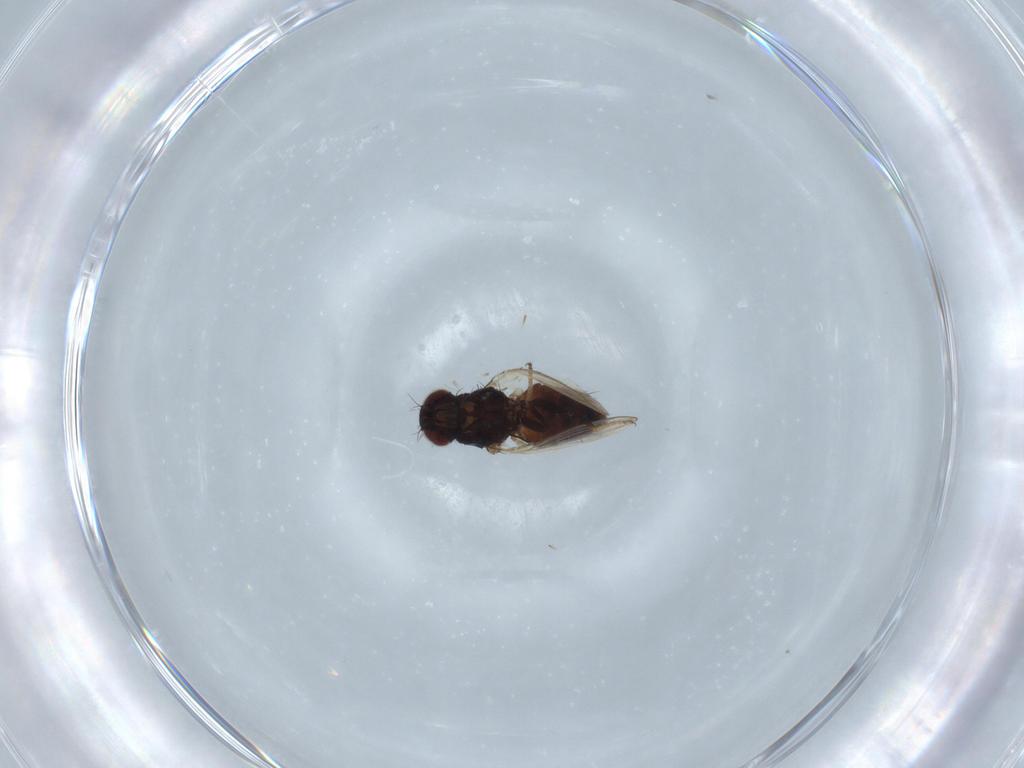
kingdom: Animalia
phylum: Arthropoda
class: Insecta
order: Diptera
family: Carnidae
